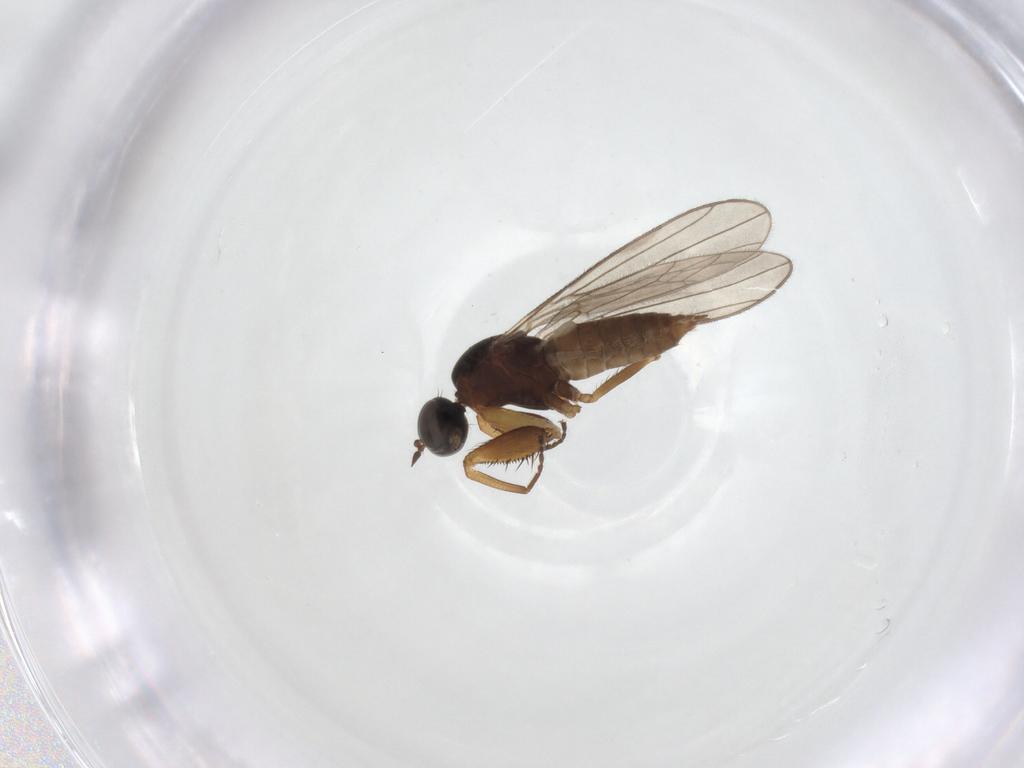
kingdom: Animalia
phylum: Arthropoda
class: Insecta
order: Diptera
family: Empididae
